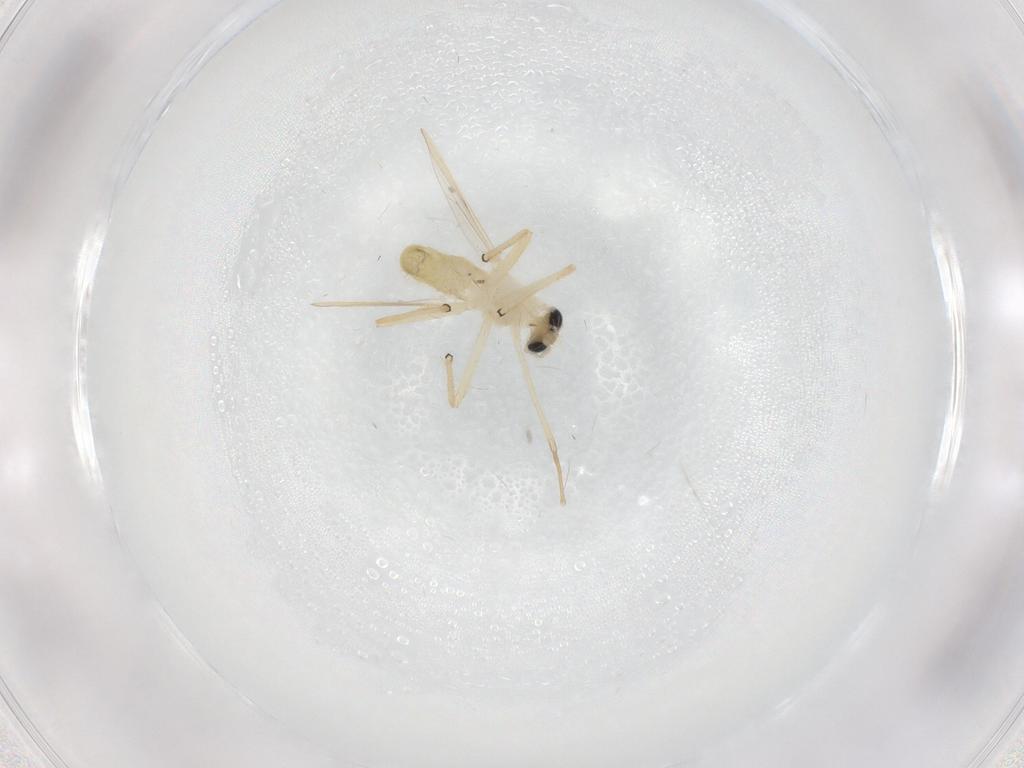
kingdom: Animalia
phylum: Arthropoda
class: Insecta
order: Diptera
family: Chironomidae
